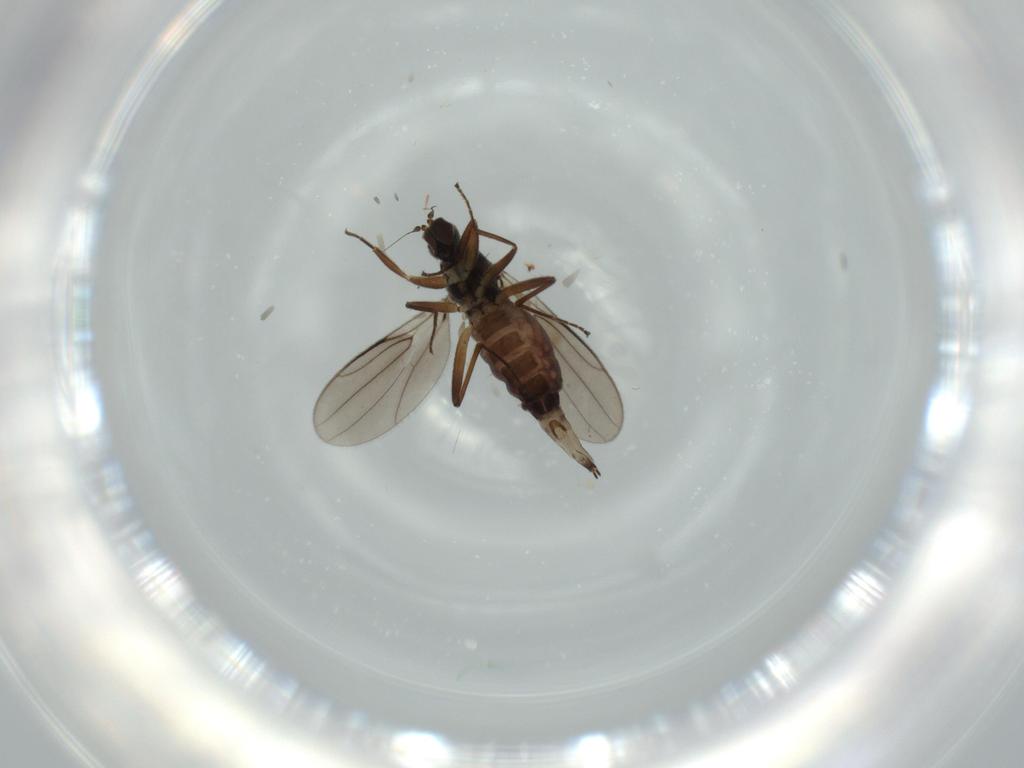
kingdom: Animalia
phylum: Arthropoda
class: Insecta
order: Diptera
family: Hybotidae
